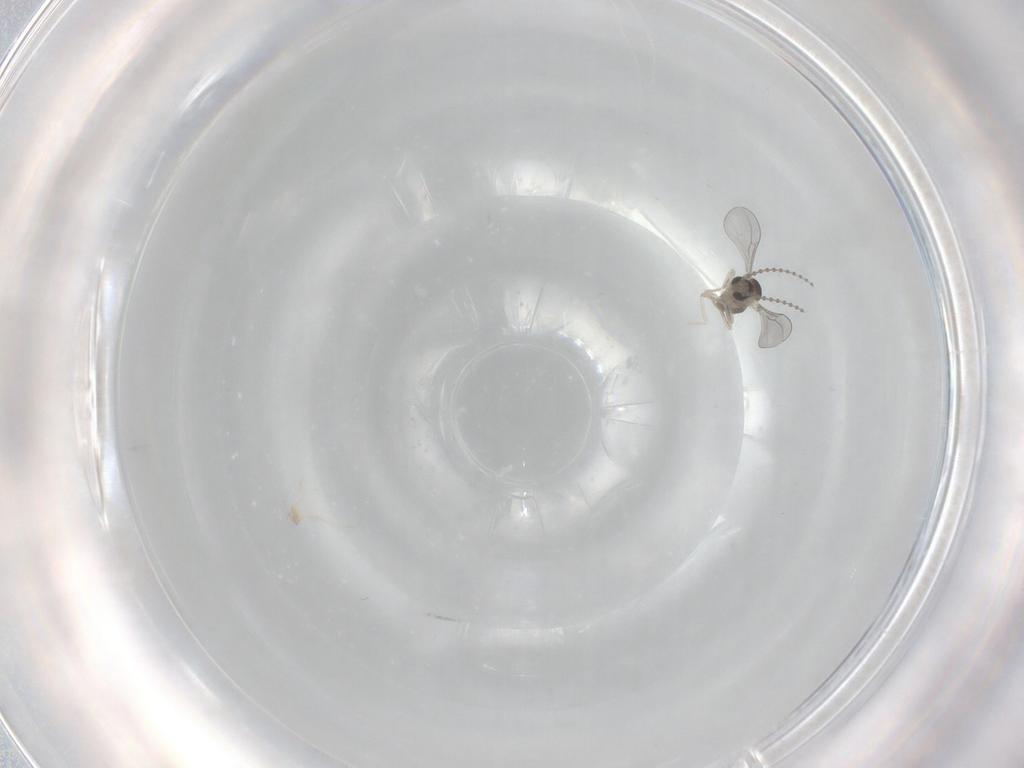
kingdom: Animalia
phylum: Arthropoda
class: Insecta
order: Diptera
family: Cecidomyiidae
